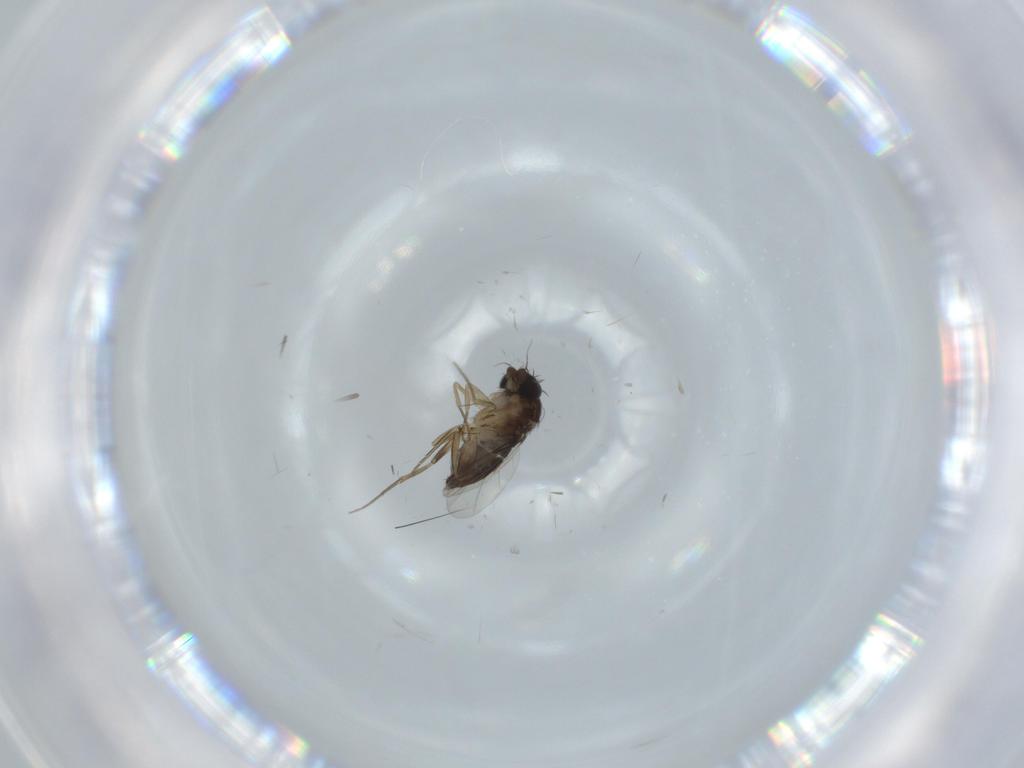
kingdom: Animalia
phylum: Arthropoda
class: Insecta
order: Diptera
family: Phoridae
